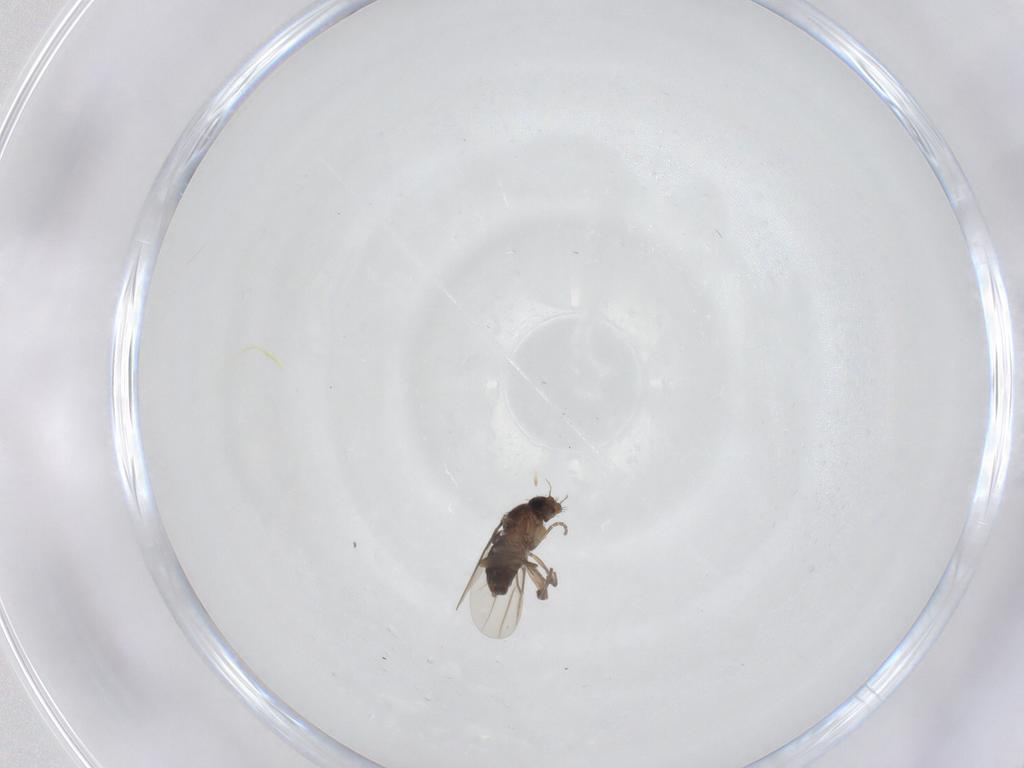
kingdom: Animalia
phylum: Arthropoda
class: Insecta
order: Diptera
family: Phoridae
